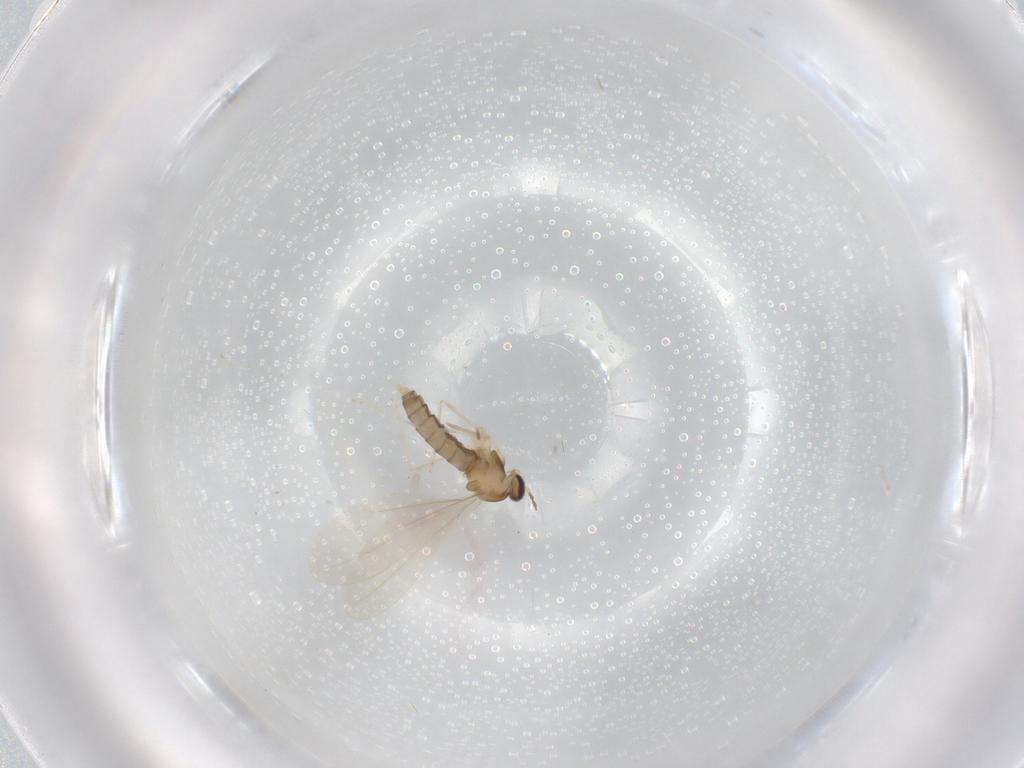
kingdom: Animalia
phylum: Arthropoda
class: Insecta
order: Diptera
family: Cecidomyiidae
